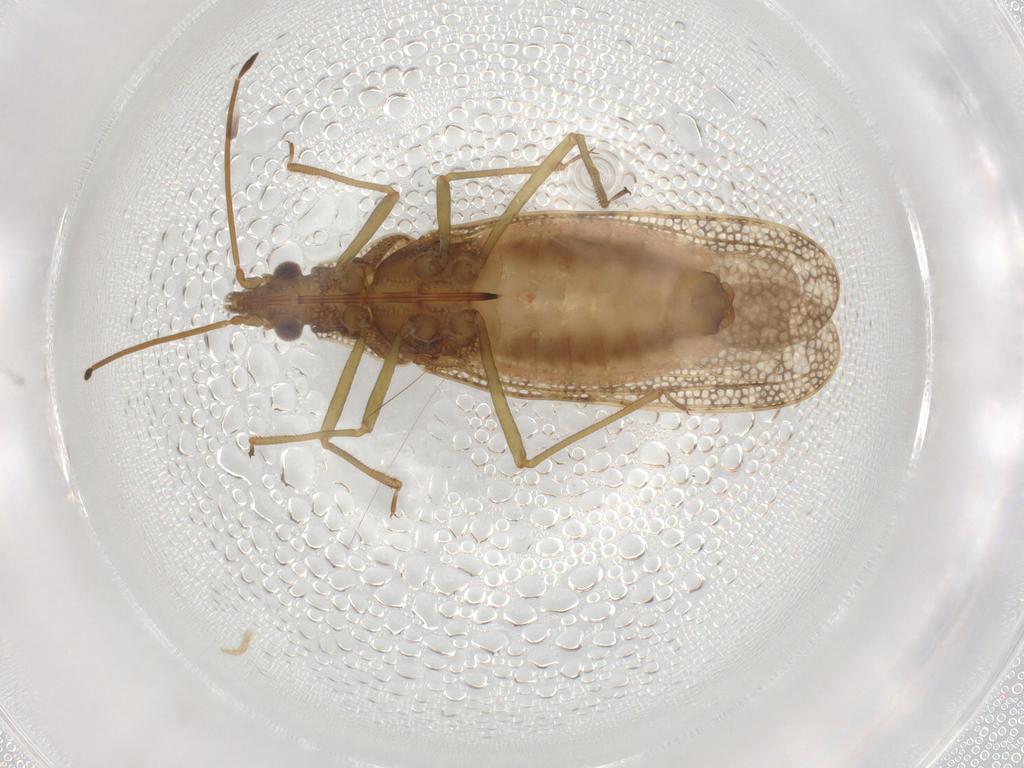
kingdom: Animalia
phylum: Arthropoda
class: Insecta
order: Hemiptera
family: Tingidae
